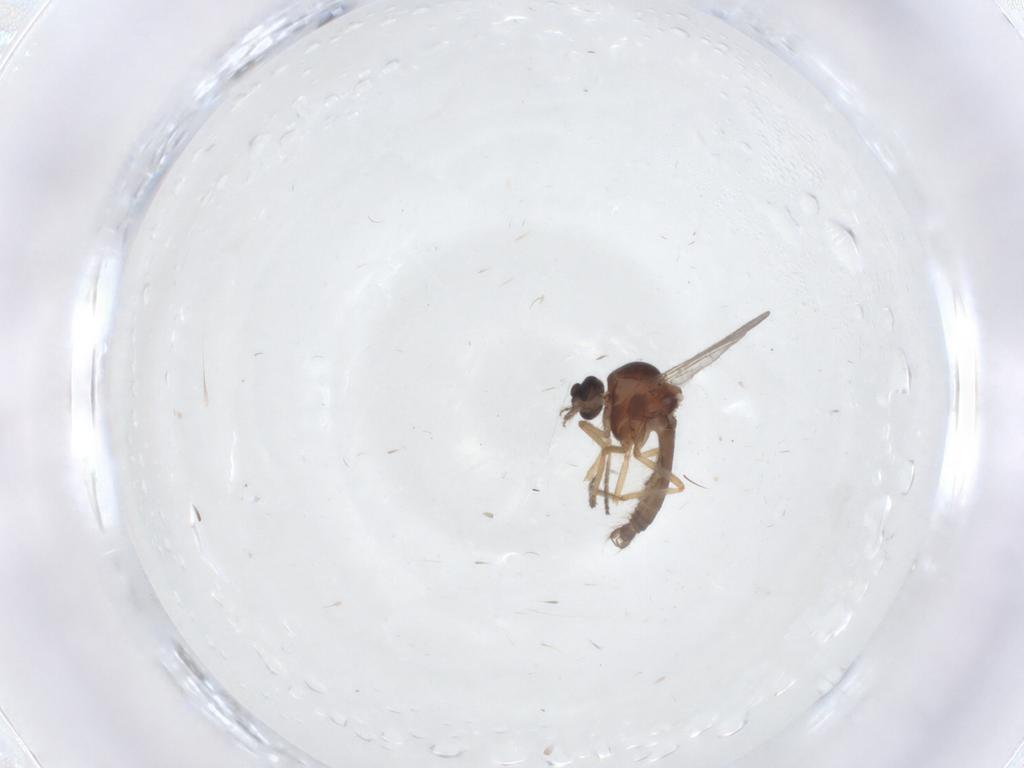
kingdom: Animalia
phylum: Arthropoda
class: Insecta
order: Diptera
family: Ceratopogonidae
